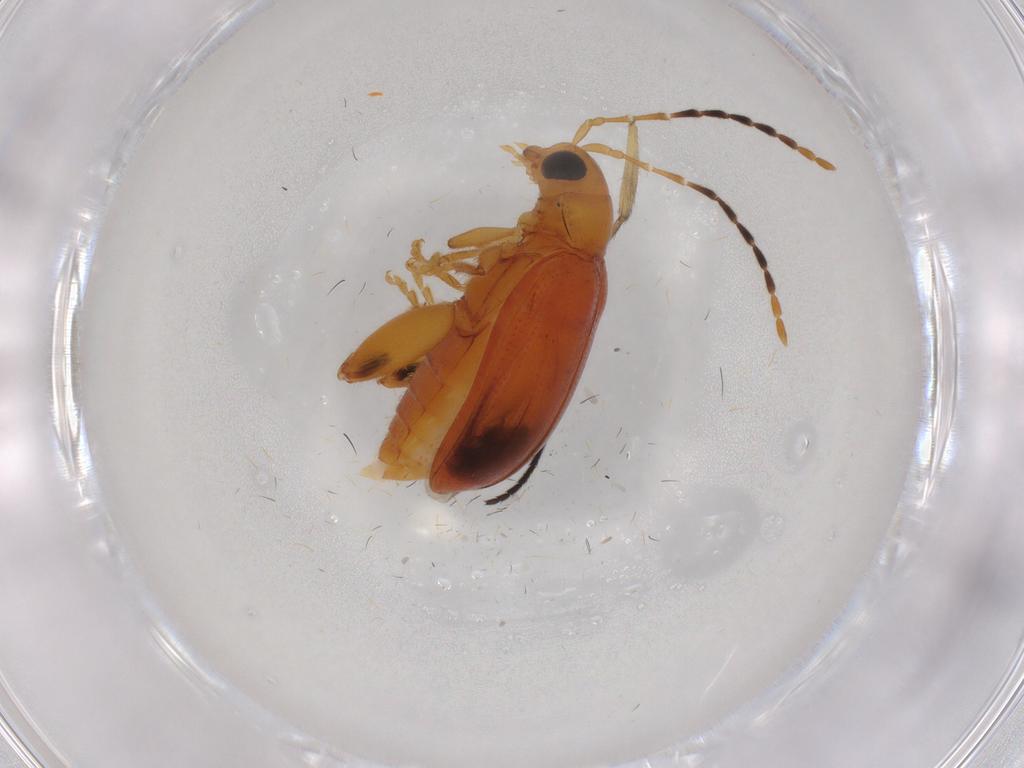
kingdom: Animalia
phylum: Arthropoda
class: Insecta
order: Coleoptera
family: Chrysomelidae
